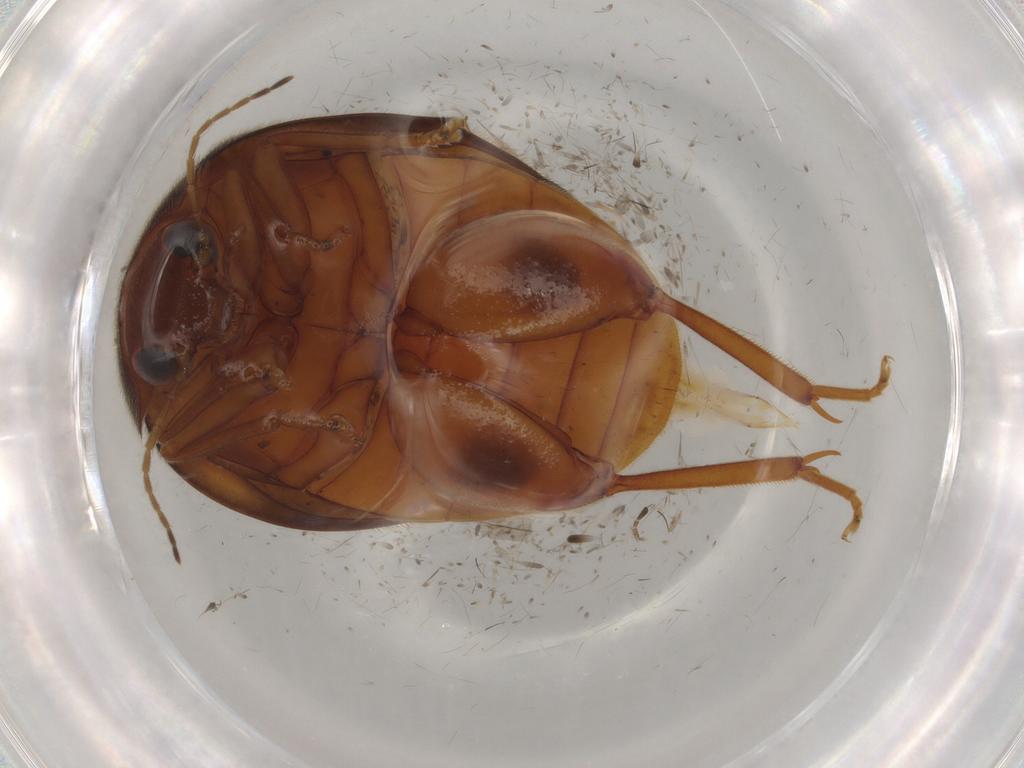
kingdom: Animalia
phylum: Arthropoda
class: Insecta
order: Coleoptera
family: Scirtidae
